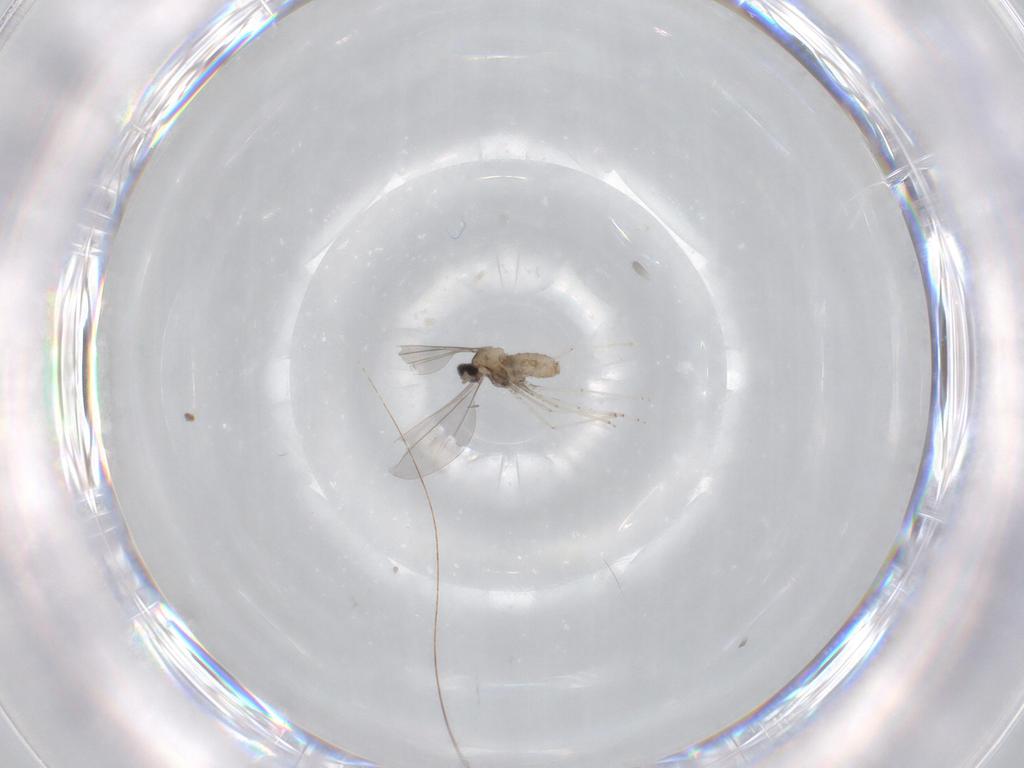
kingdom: Animalia
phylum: Arthropoda
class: Insecta
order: Diptera
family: Cecidomyiidae
